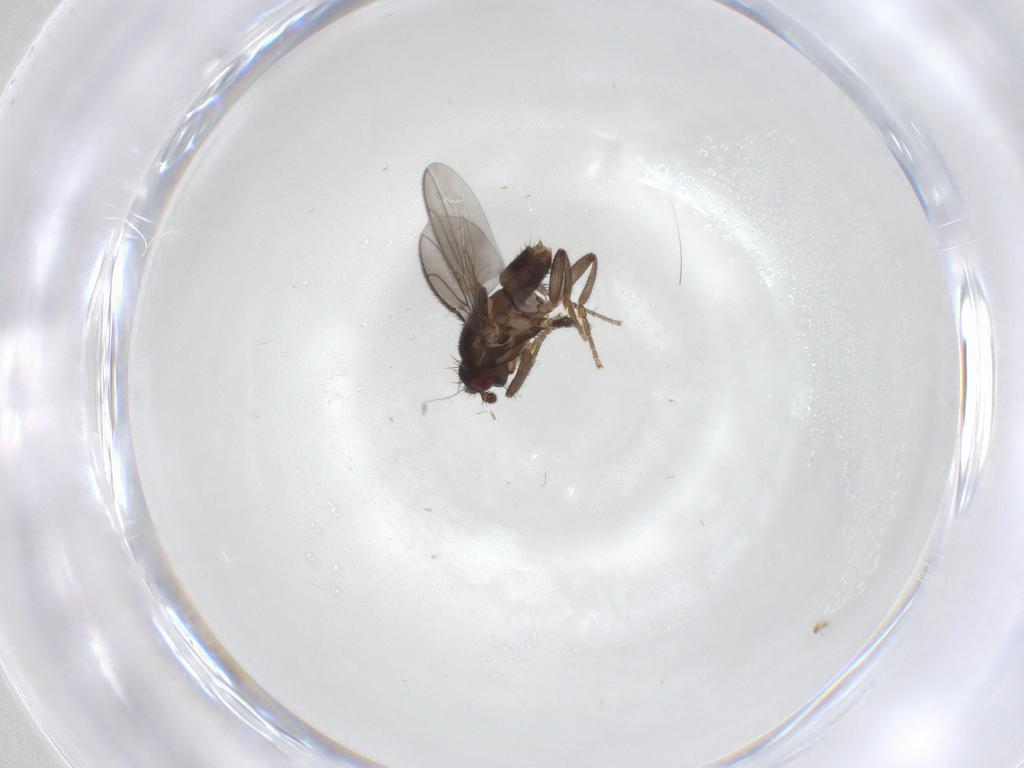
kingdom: Animalia
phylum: Arthropoda
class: Insecta
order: Diptera
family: Sphaeroceridae
